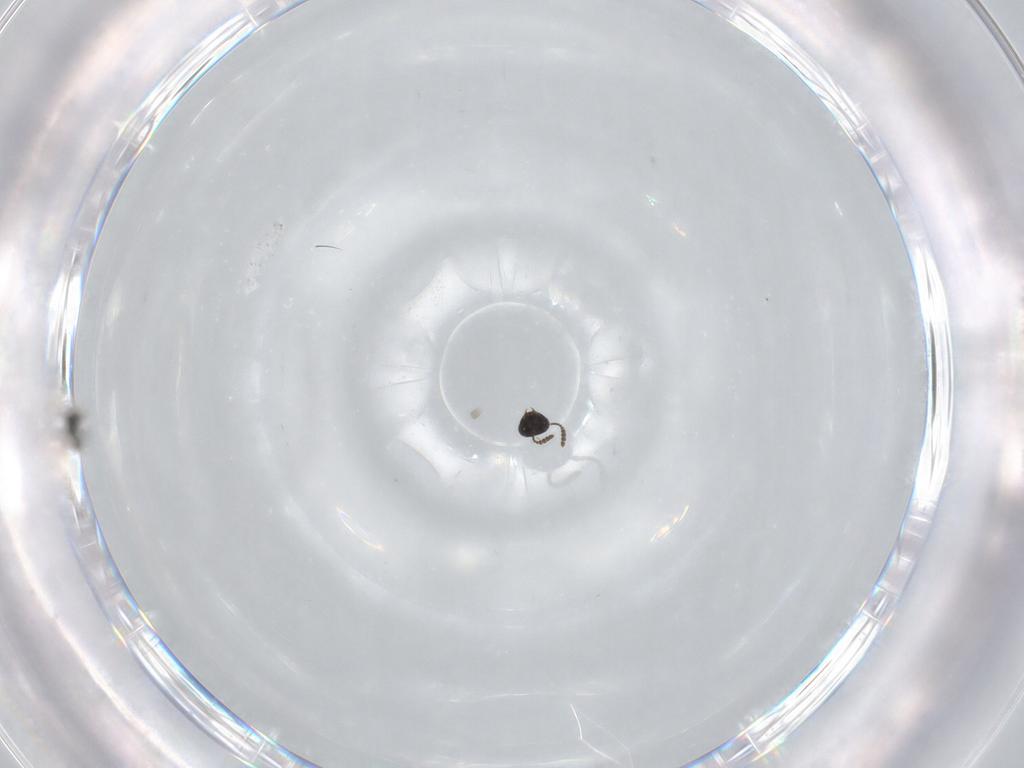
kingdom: Animalia
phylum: Arthropoda
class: Insecta
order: Hymenoptera
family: Scelionidae
